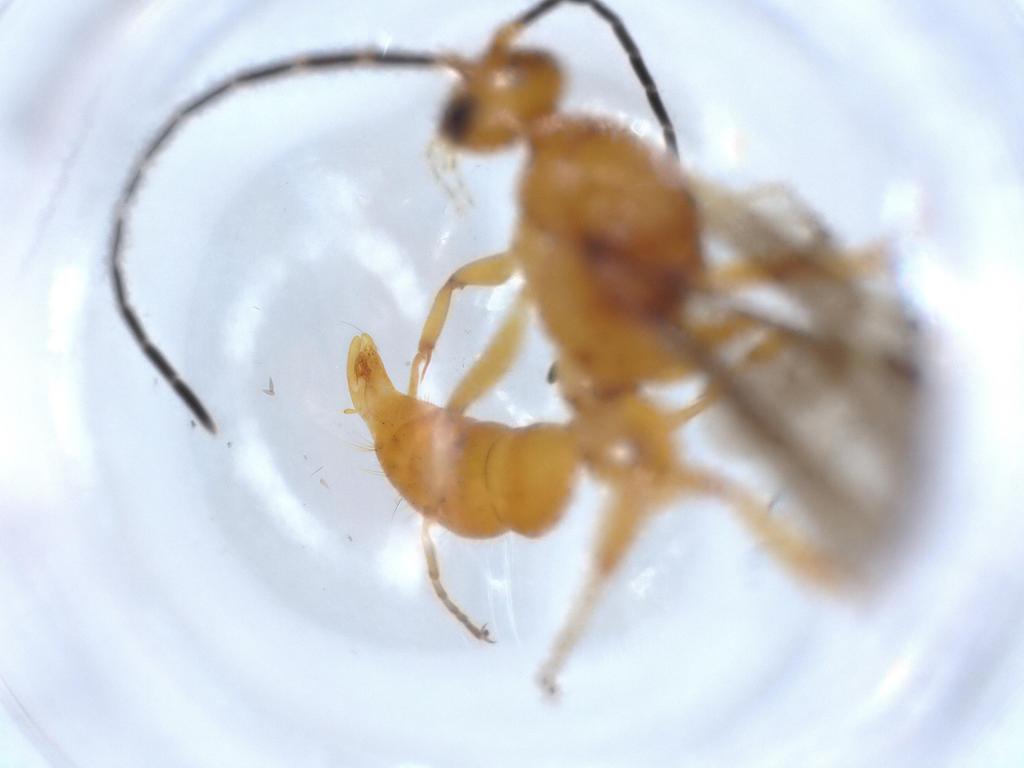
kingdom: Animalia
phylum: Arthropoda
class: Insecta
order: Hymenoptera
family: Formicidae
